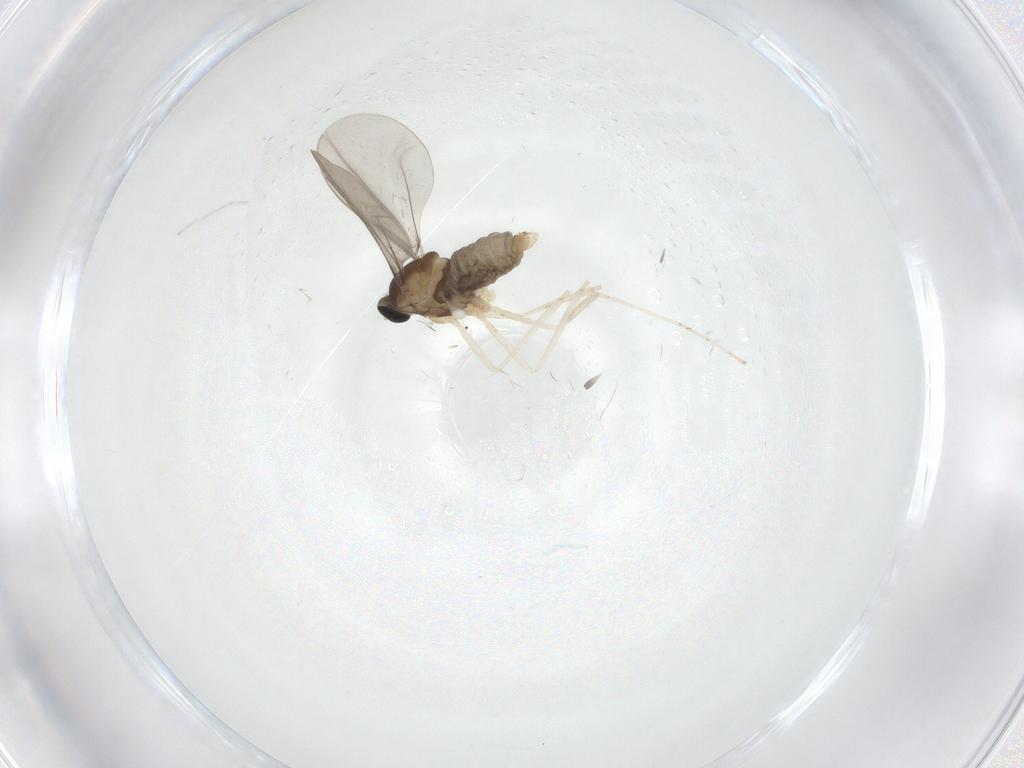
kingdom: Animalia
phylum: Arthropoda
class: Insecta
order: Diptera
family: Cecidomyiidae
